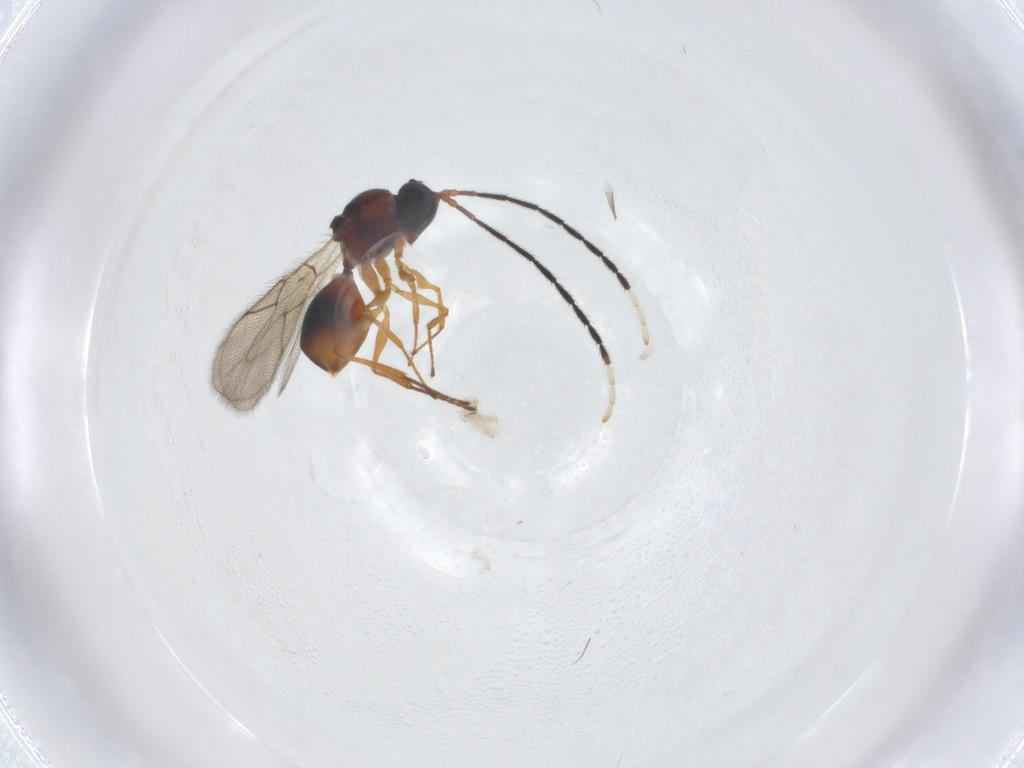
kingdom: Animalia
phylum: Arthropoda
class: Insecta
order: Hymenoptera
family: Figitidae
